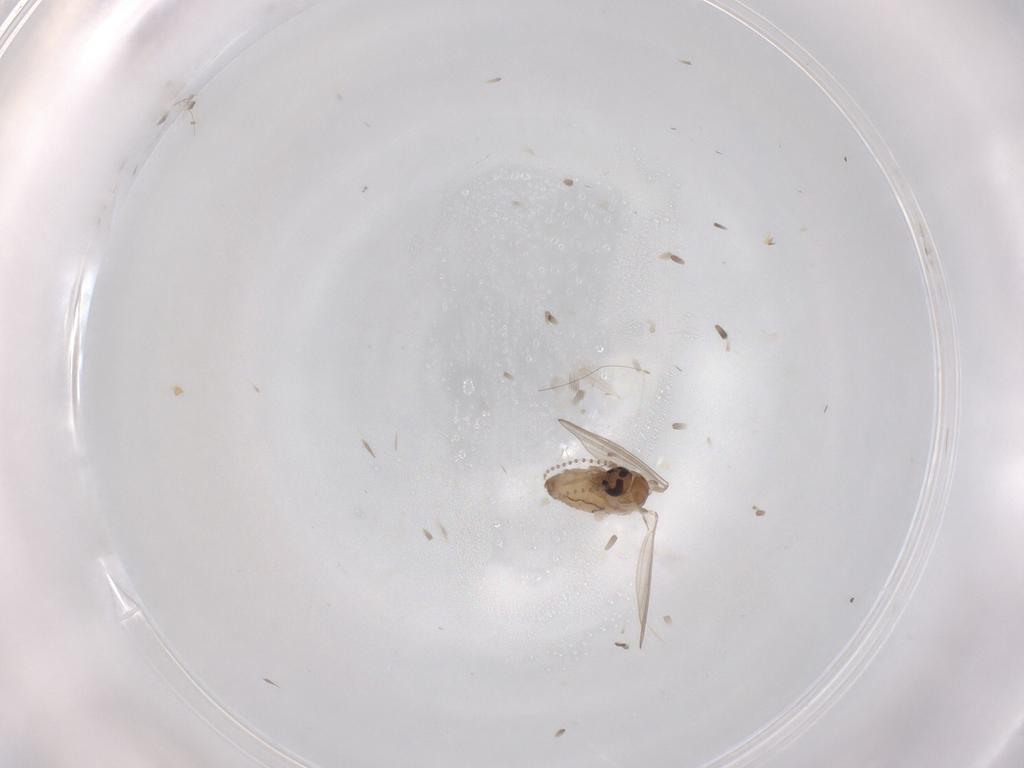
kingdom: Animalia
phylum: Arthropoda
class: Insecta
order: Diptera
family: Psychodidae
